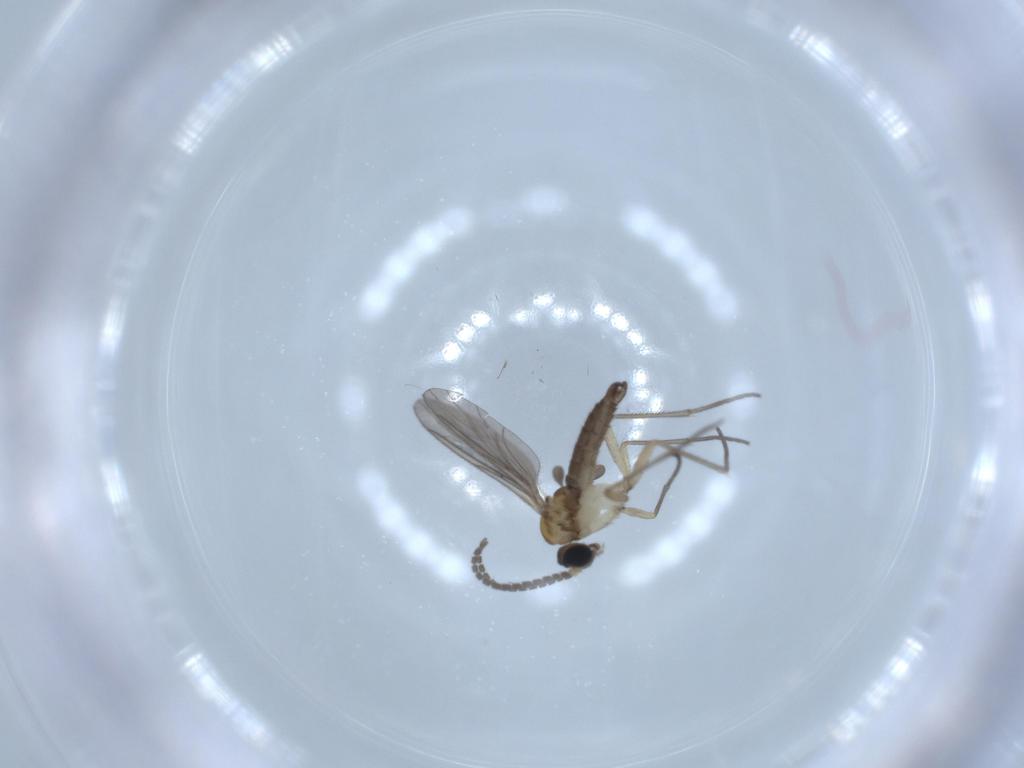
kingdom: Animalia
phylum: Arthropoda
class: Insecta
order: Diptera
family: Sciaridae
